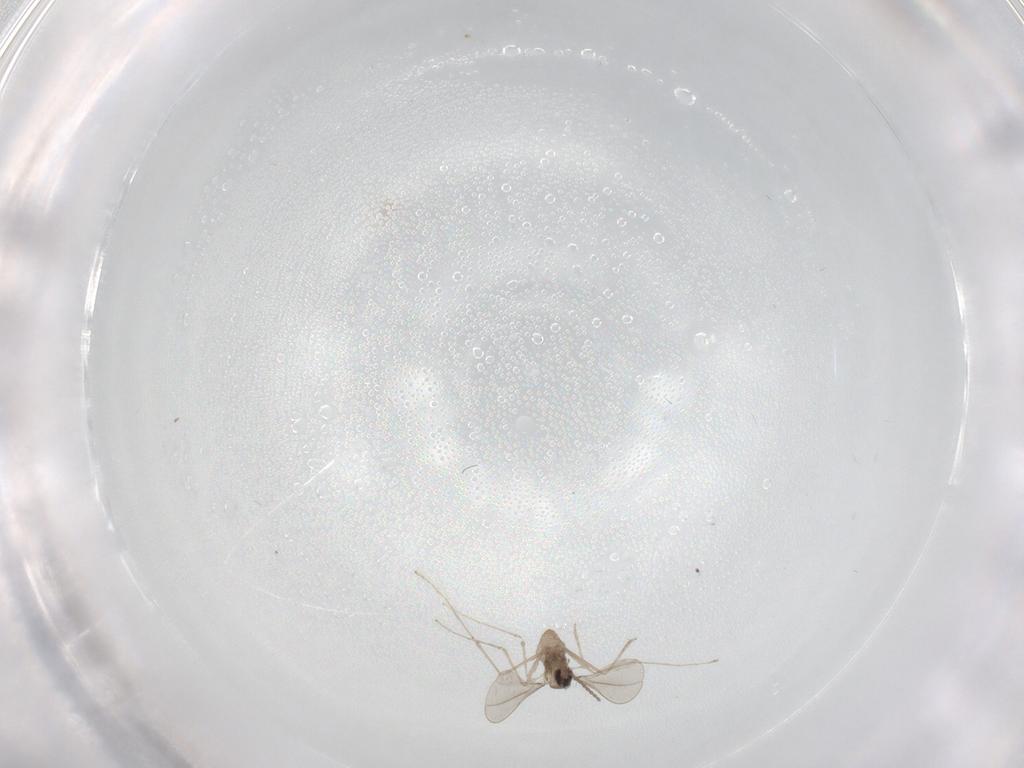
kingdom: Animalia
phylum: Arthropoda
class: Insecta
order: Diptera
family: Cecidomyiidae
